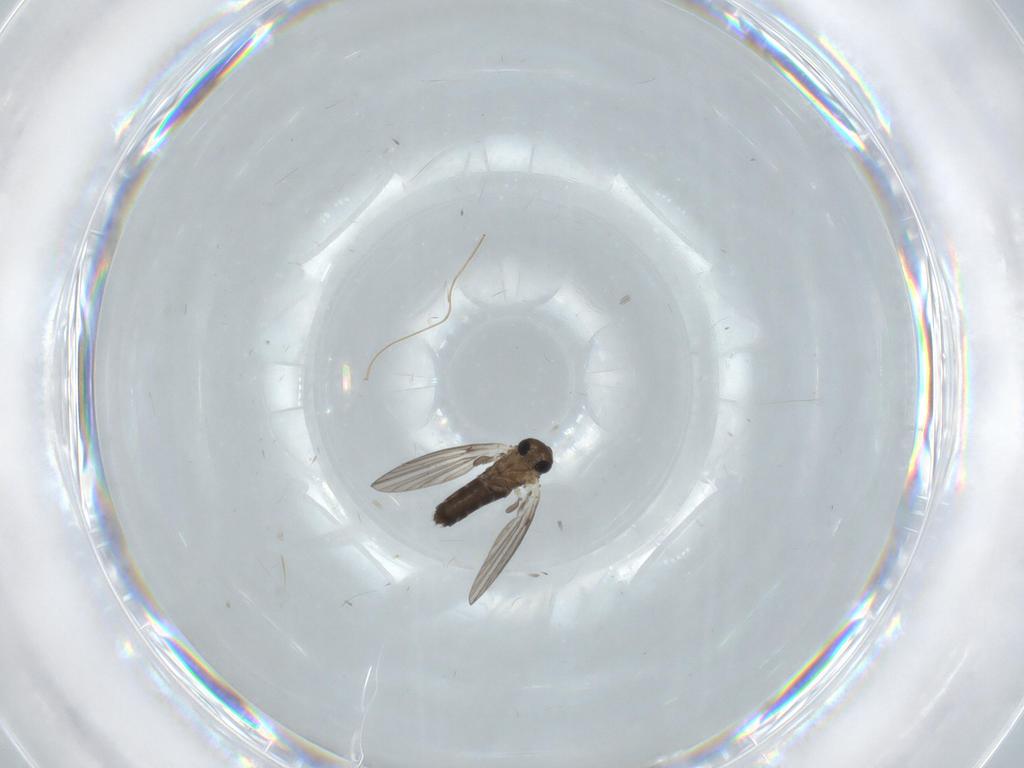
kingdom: Animalia
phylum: Arthropoda
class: Insecta
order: Diptera
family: Psychodidae
